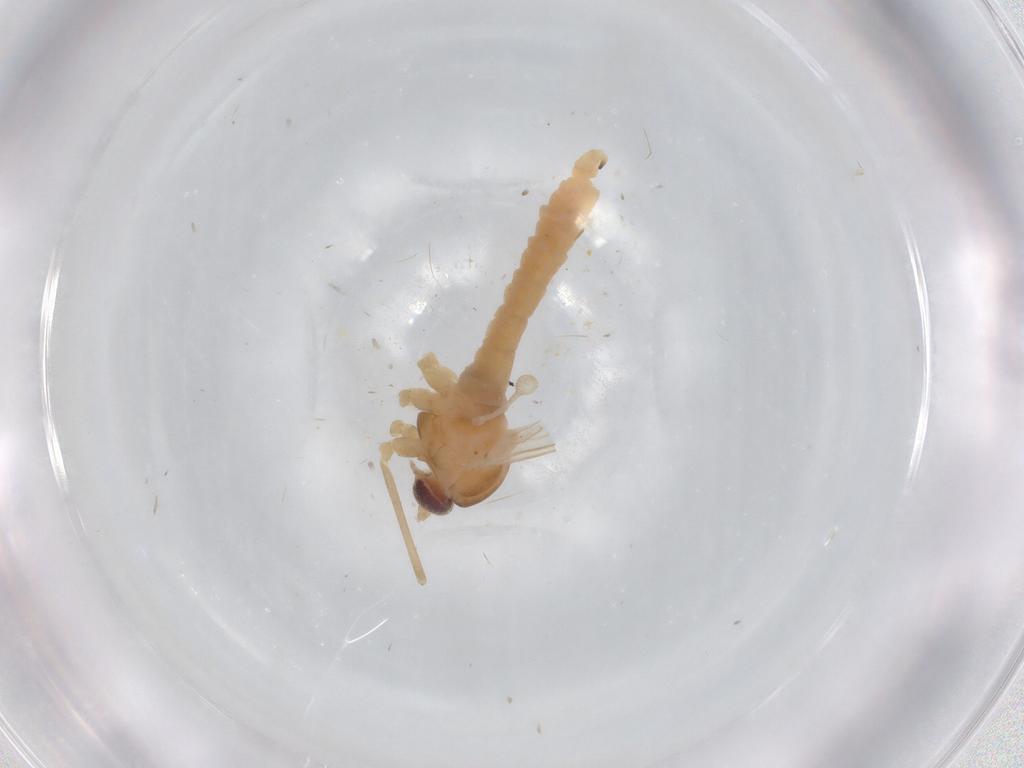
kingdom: Animalia
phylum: Arthropoda
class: Insecta
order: Diptera
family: Cecidomyiidae
